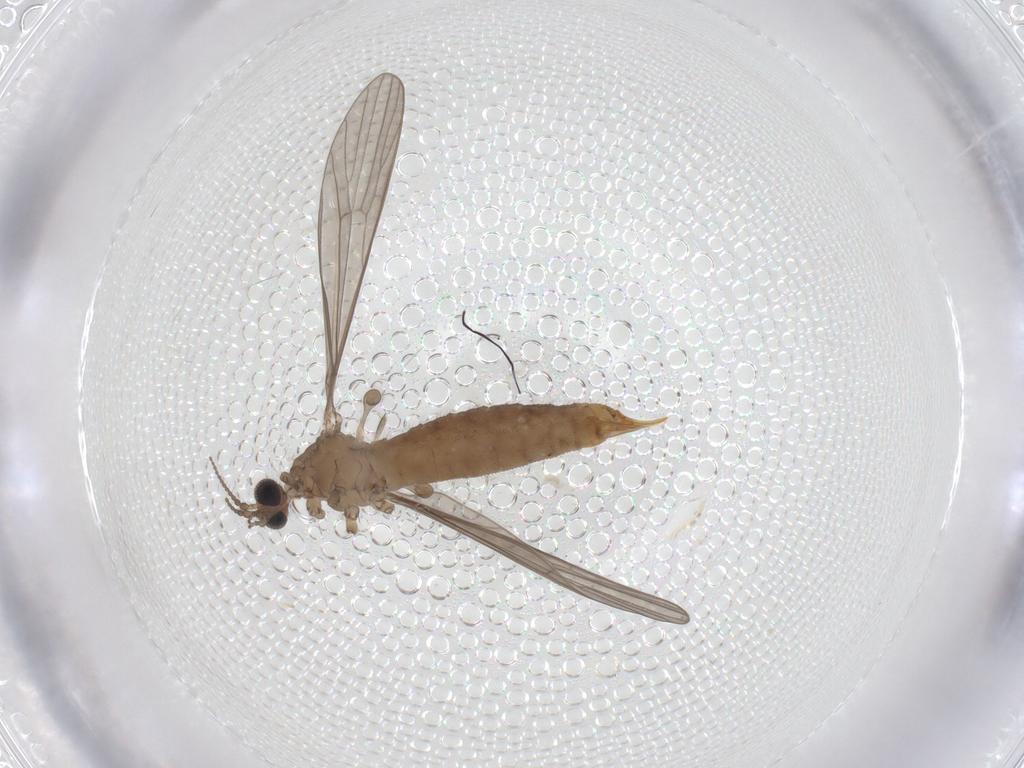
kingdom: Animalia
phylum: Arthropoda
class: Insecta
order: Diptera
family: Limoniidae
